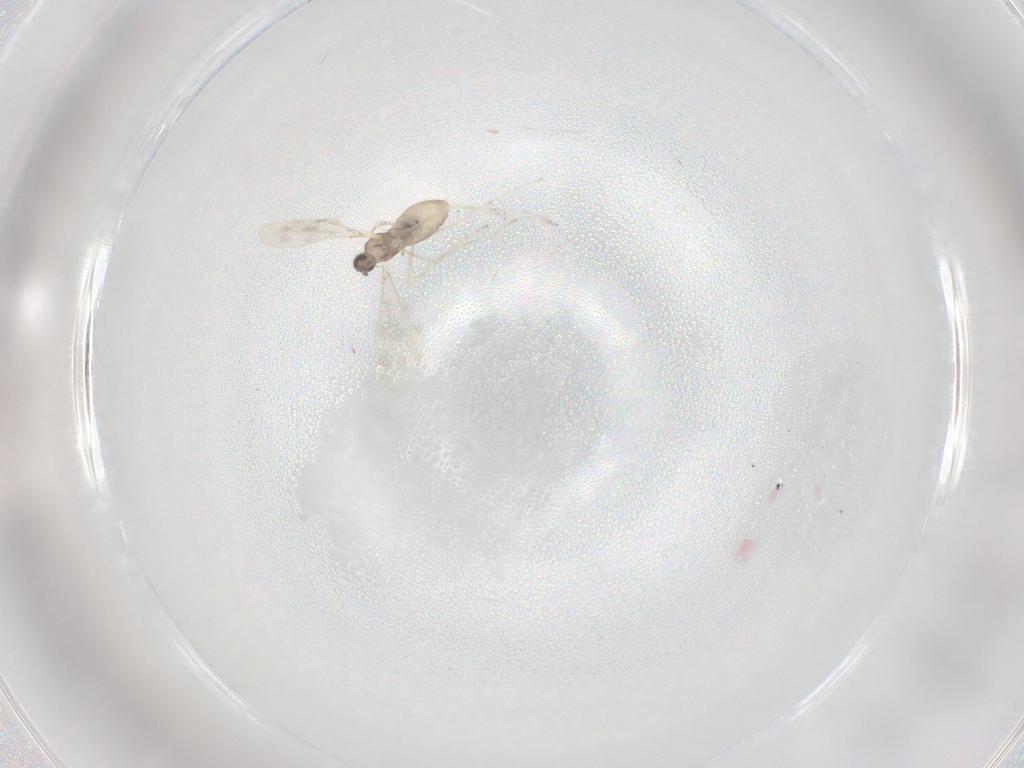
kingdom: Animalia
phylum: Arthropoda
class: Insecta
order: Diptera
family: Cecidomyiidae
